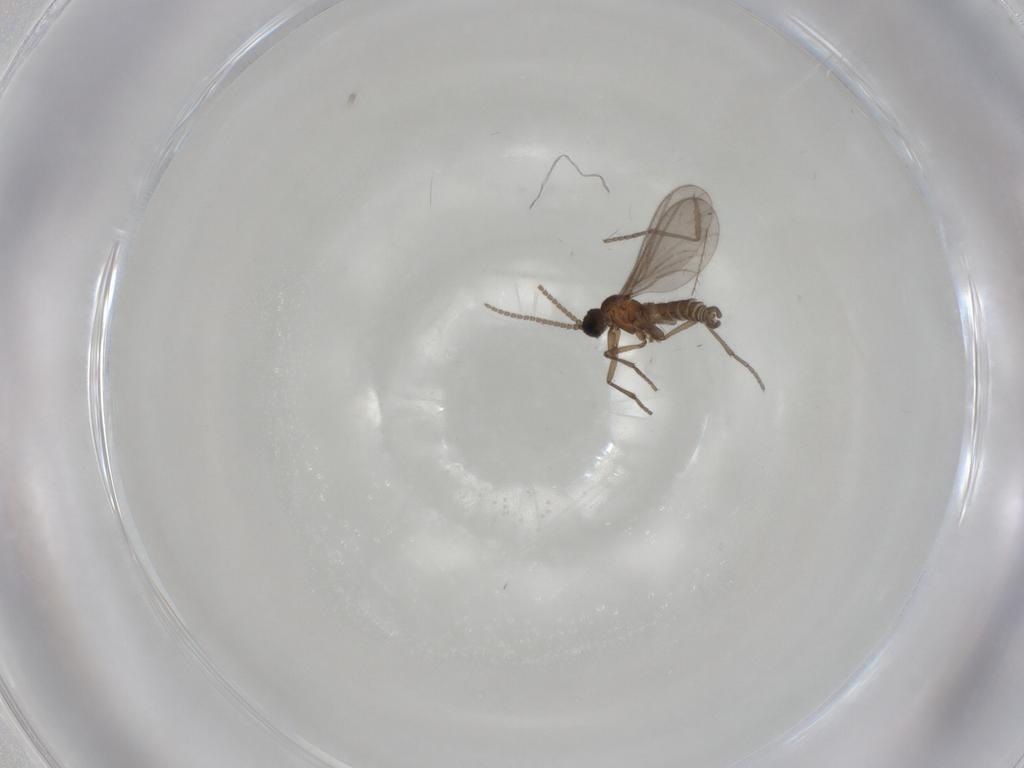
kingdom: Animalia
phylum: Arthropoda
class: Insecta
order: Diptera
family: Sciaridae
